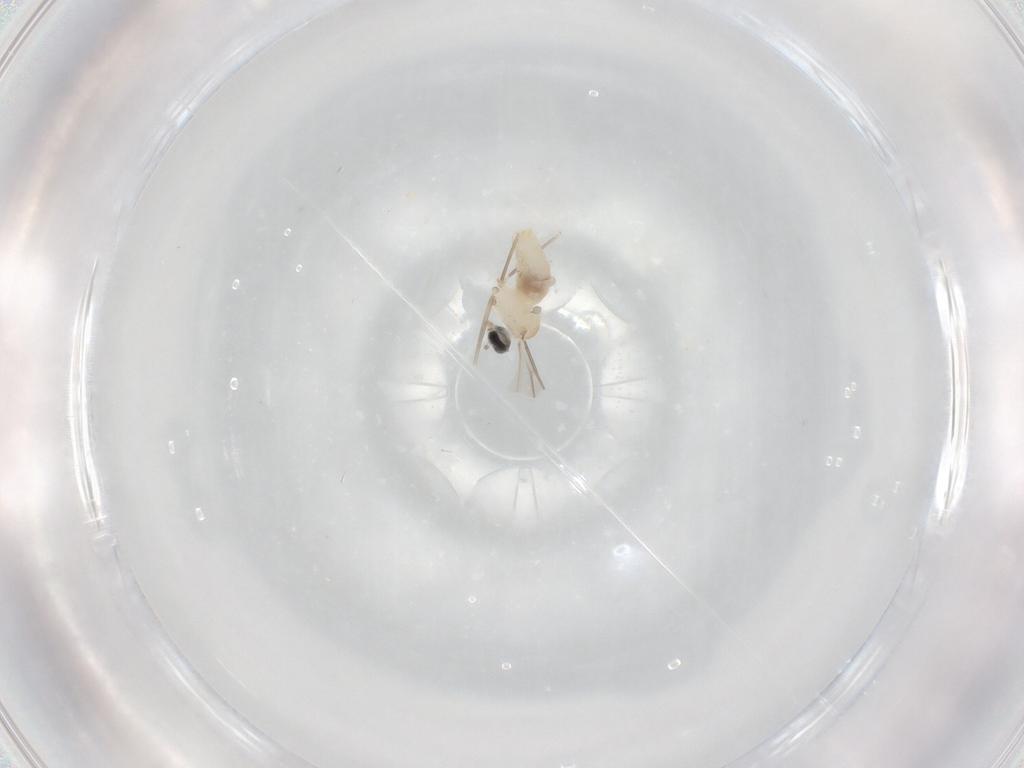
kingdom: Animalia
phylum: Arthropoda
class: Insecta
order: Diptera
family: Cecidomyiidae
